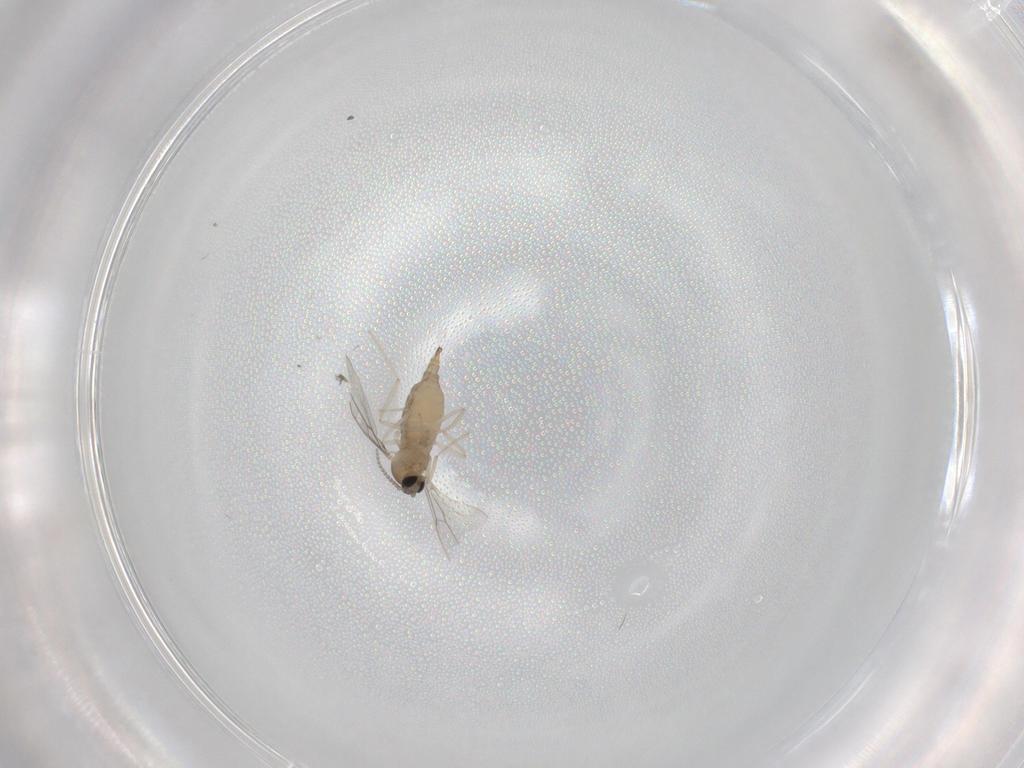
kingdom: Animalia
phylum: Arthropoda
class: Insecta
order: Diptera
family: Cecidomyiidae
